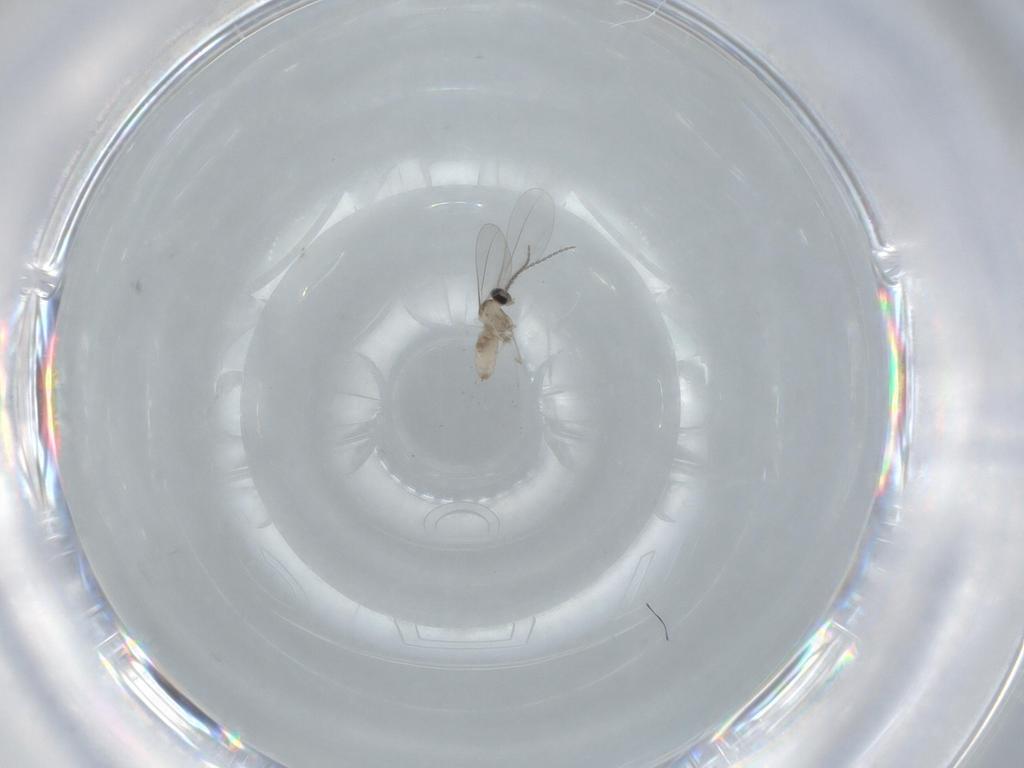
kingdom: Animalia
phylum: Arthropoda
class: Insecta
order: Diptera
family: Cecidomyiidae
